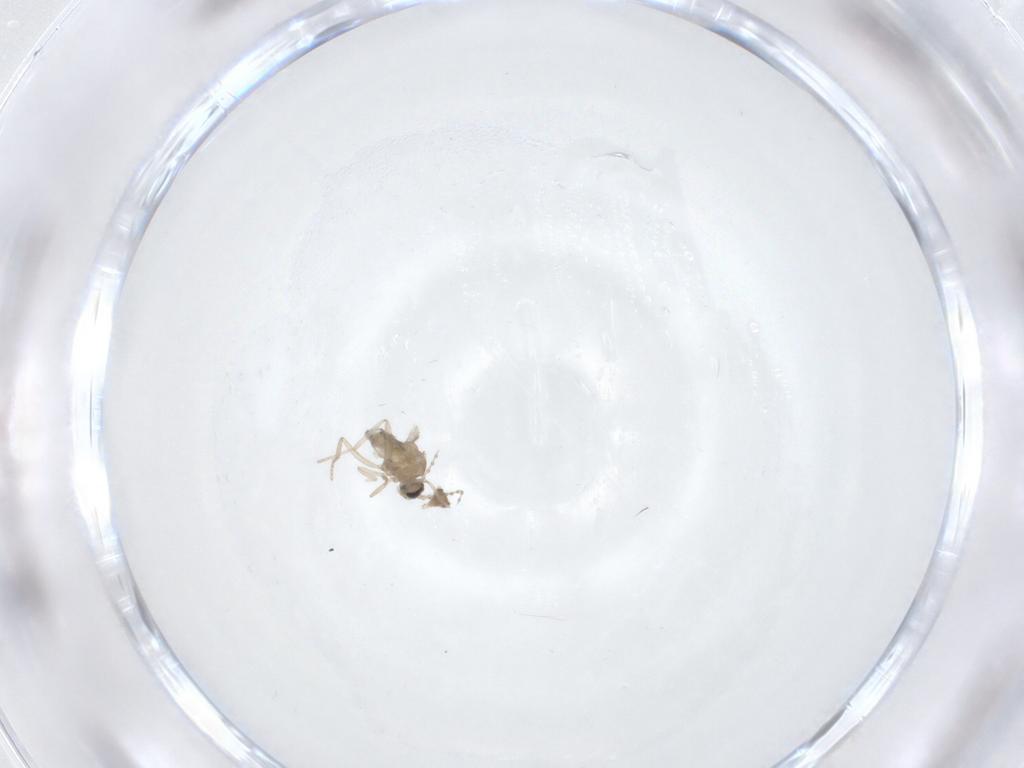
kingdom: Animalia
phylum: Arthropoda
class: Insecta
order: Diptera
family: Cecidomyiidae
